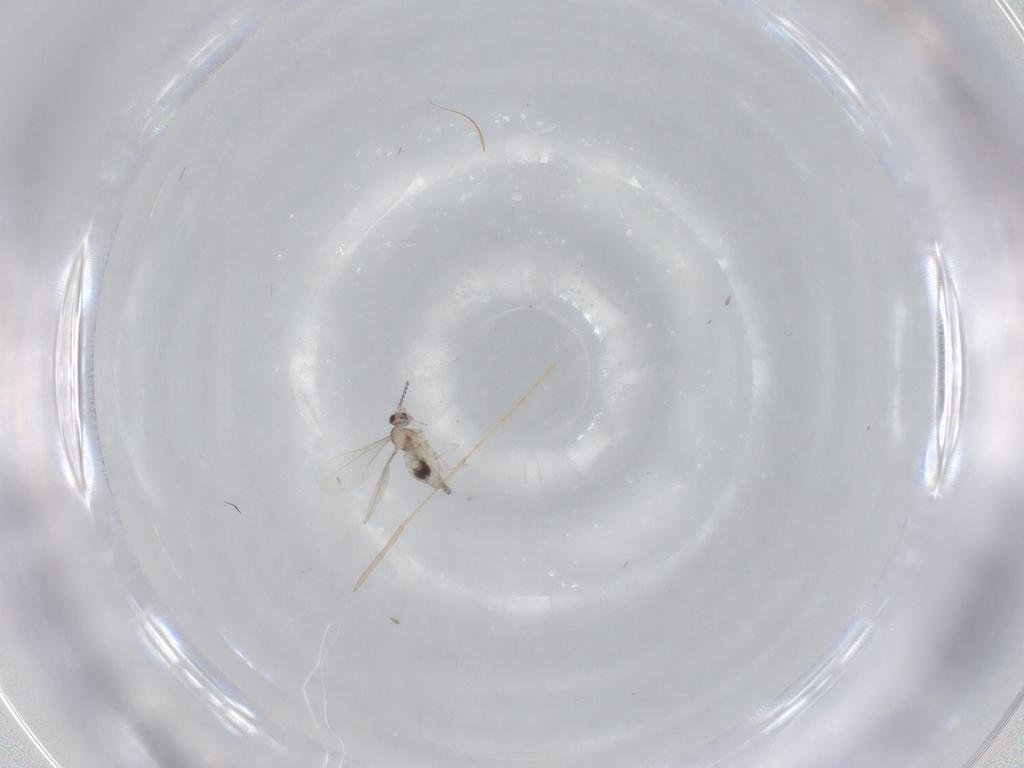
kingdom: Animalia
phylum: Arthropoda
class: Insecta
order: Diptera
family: Psychodidae
